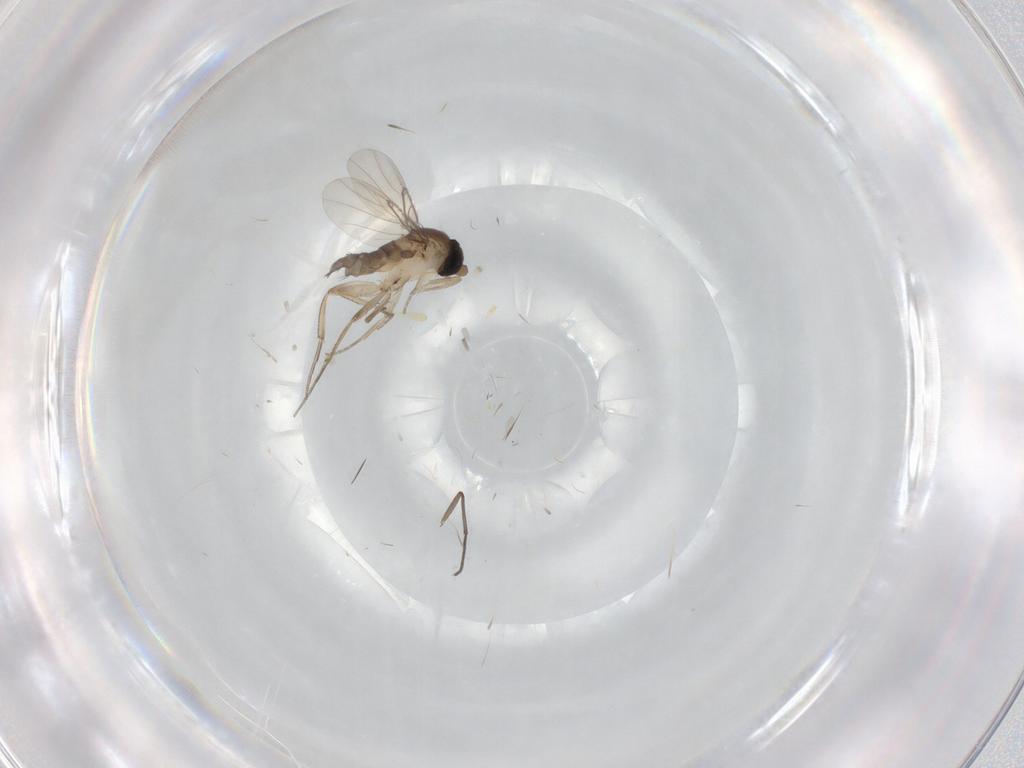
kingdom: Animalia
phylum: Arthropoda
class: Insecta
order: Diptera
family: Phoridae
